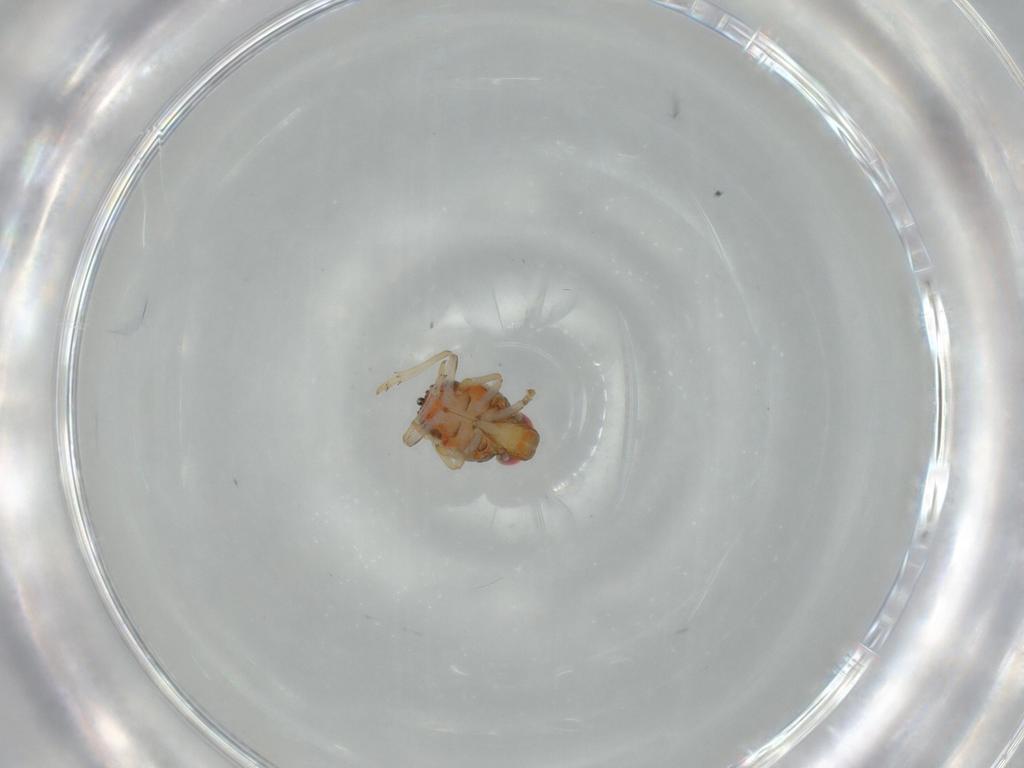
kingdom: Animalia
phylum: Arthropoda
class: Insecta
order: Hemiptera
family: Issidae
